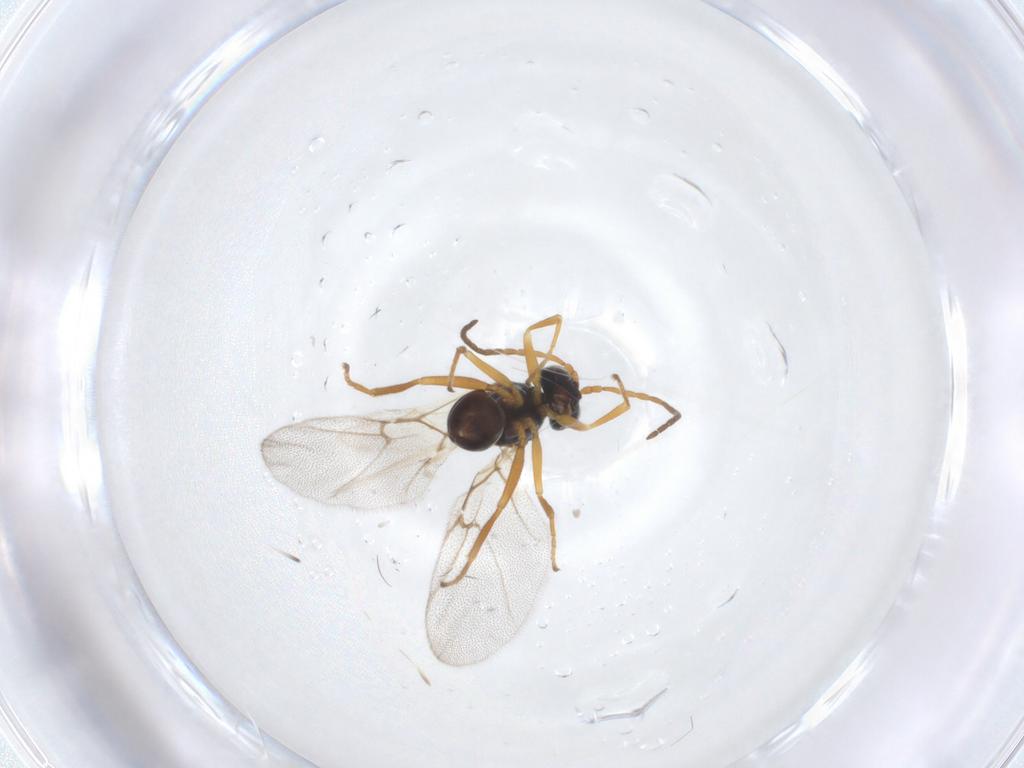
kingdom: Animalia
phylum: Arthropoda
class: Insecta
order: Hymenoptera
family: Cynipidae
